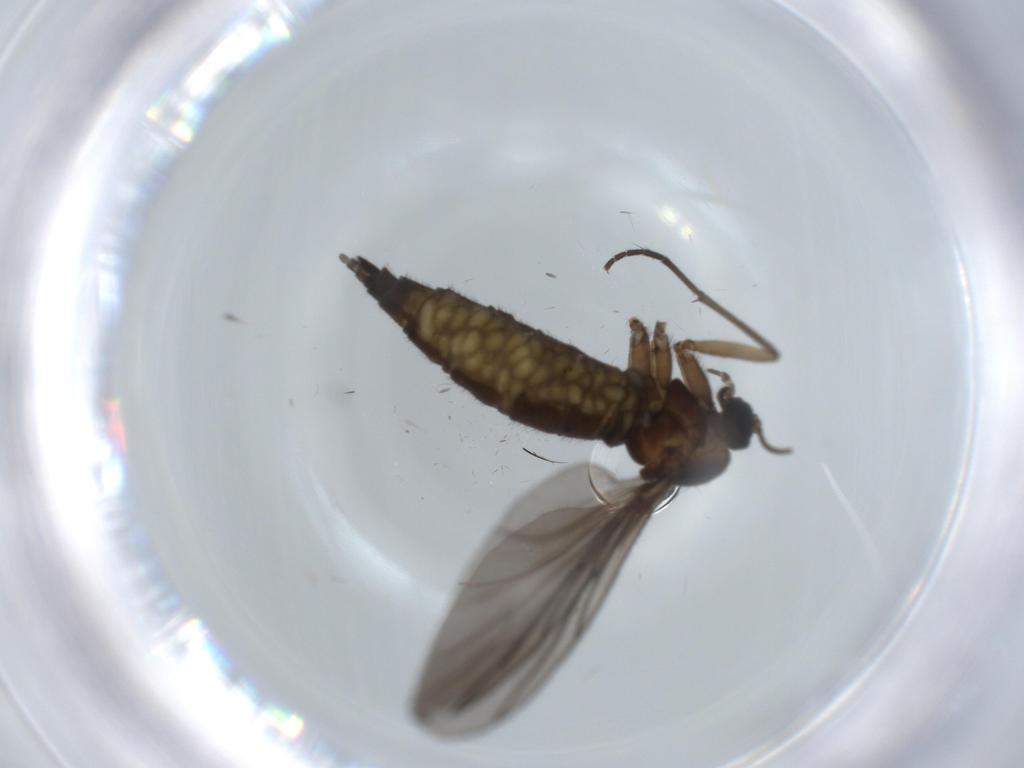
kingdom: Animalia
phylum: Arthropoda
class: Insecta
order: Diptera
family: Sciaridae
